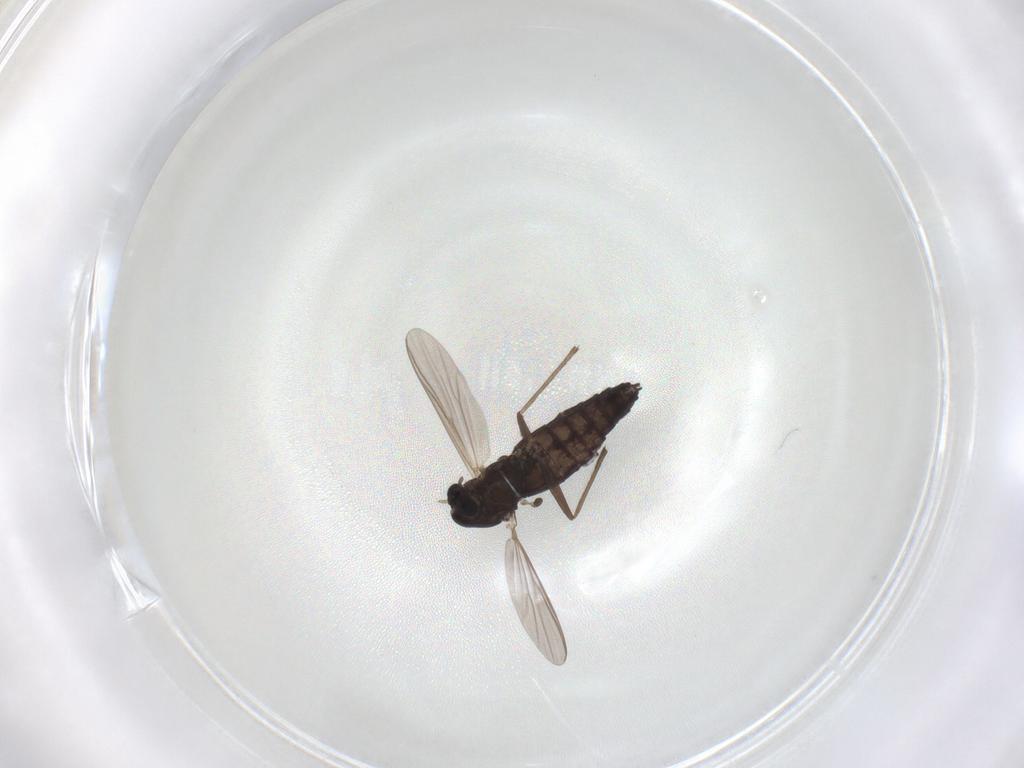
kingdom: Animalia
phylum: Arthropoda
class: Insecta
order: Diptera
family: Chironomidae
